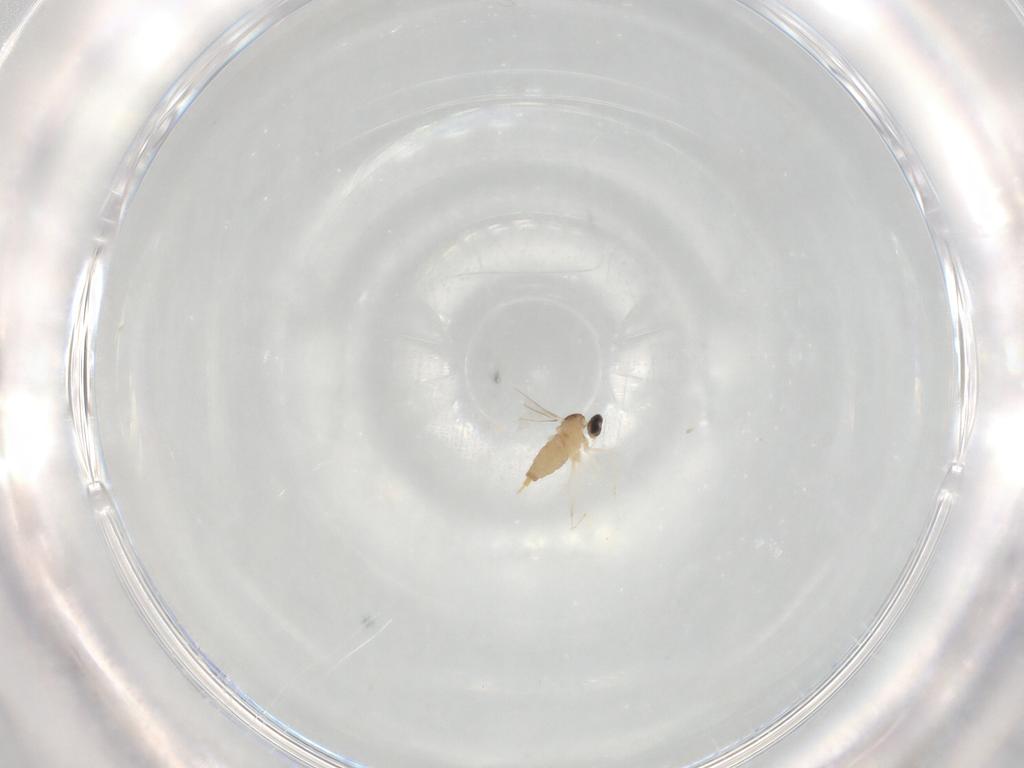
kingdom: Animalia
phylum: Arthropoda
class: Insecta
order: Diptera
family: Cecidomyiidae
